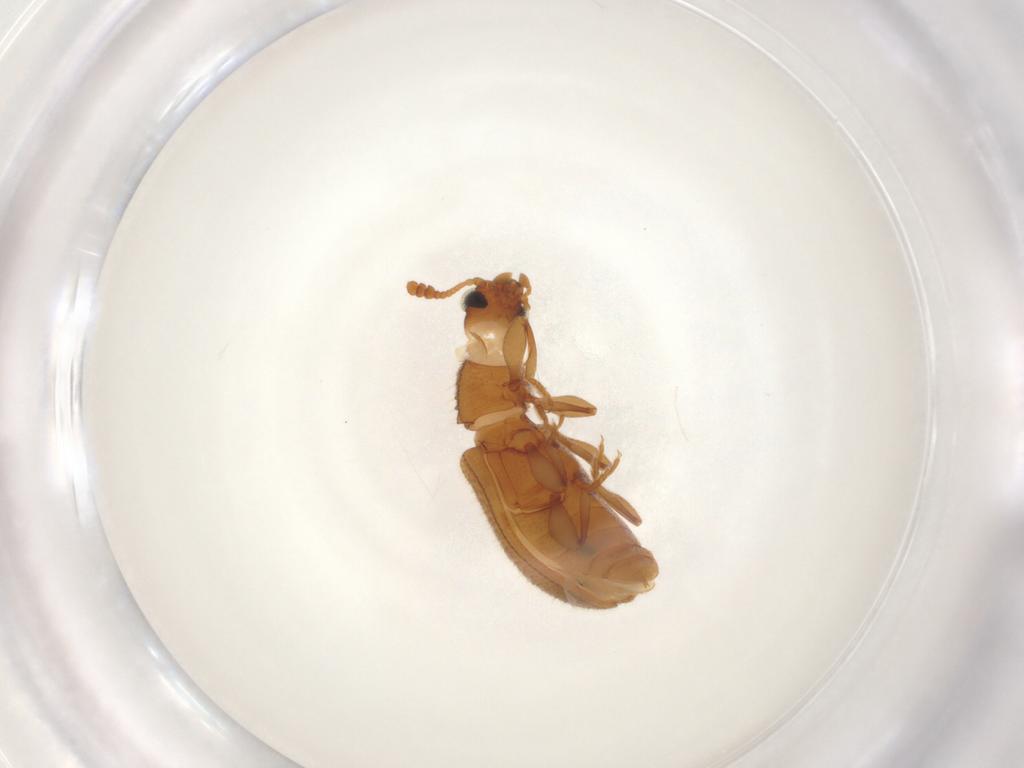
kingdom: Animalia
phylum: Arthropoda
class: Insecta
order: Coleoptera
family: Tenebrionidae
